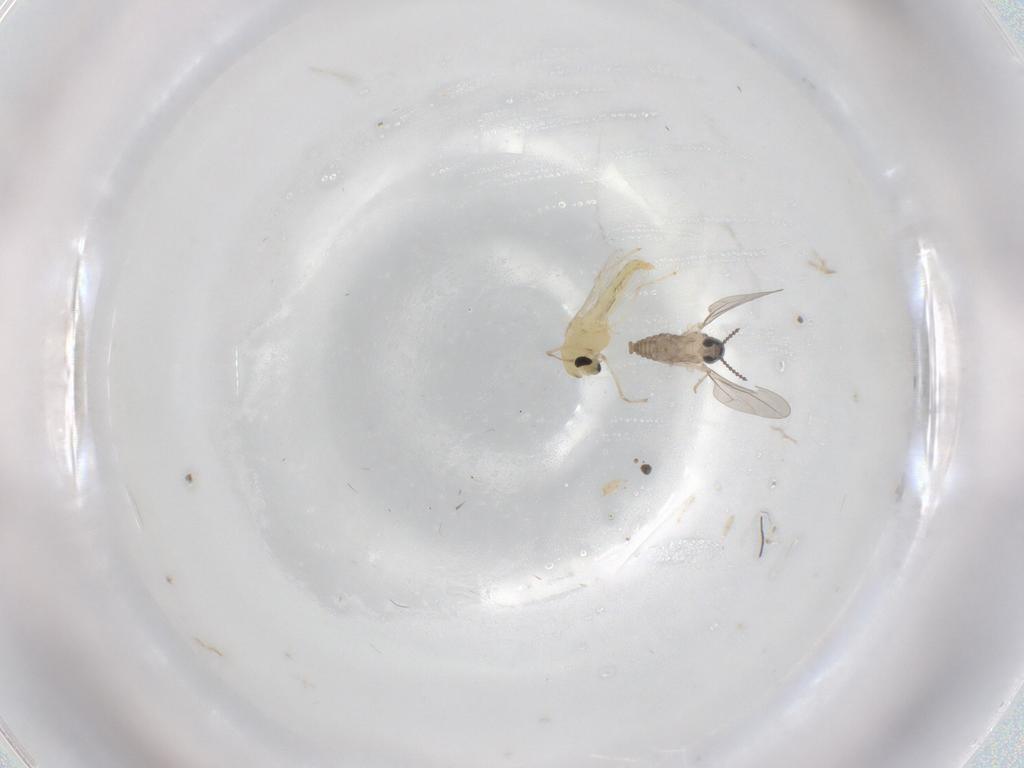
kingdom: Animalia
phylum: Arthropoda
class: Insecta
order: Diptera
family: Cecidomyiidae
